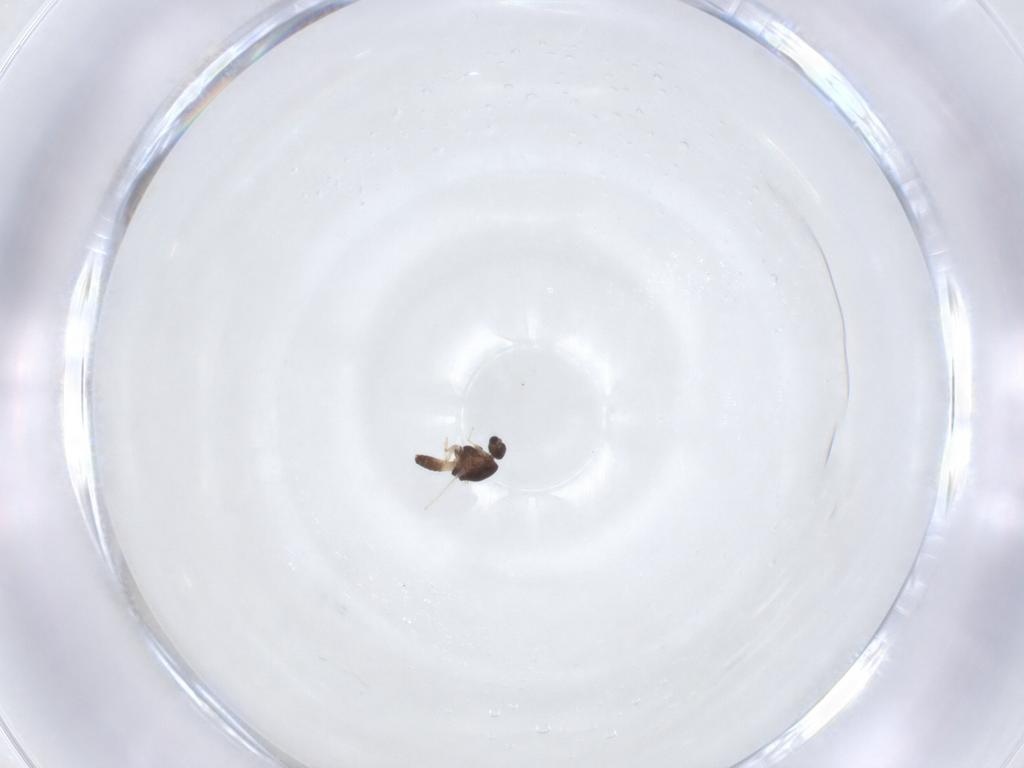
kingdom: Animalia
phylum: Arthropoda
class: Insecta
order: Diptera
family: Chironomidae
